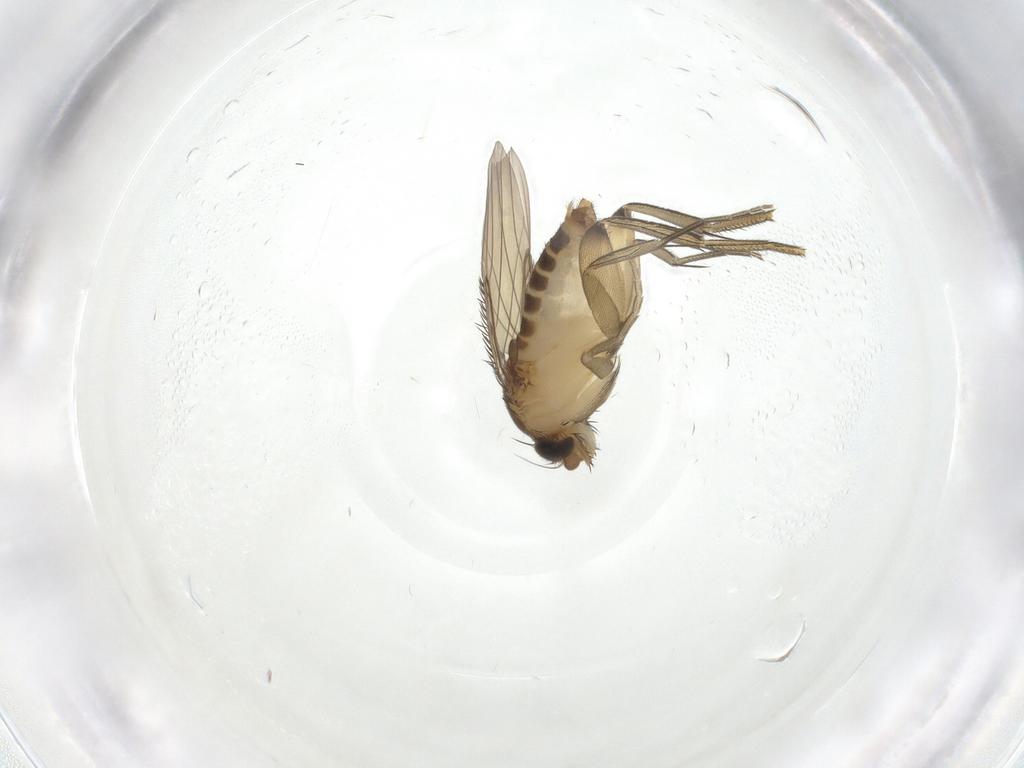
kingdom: Animalia
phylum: Arthropoda
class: Insecta
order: Diptera
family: Phoridae
